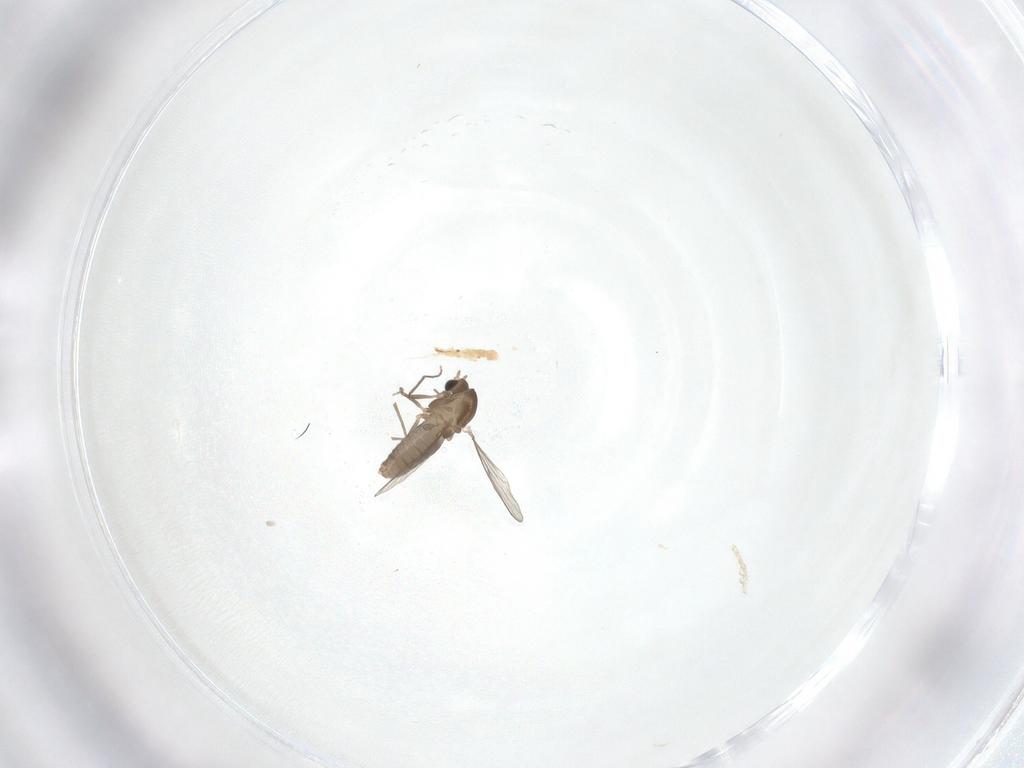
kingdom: Animalia
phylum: Arthropoda
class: Insecta
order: Diptera
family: Chironomidae
